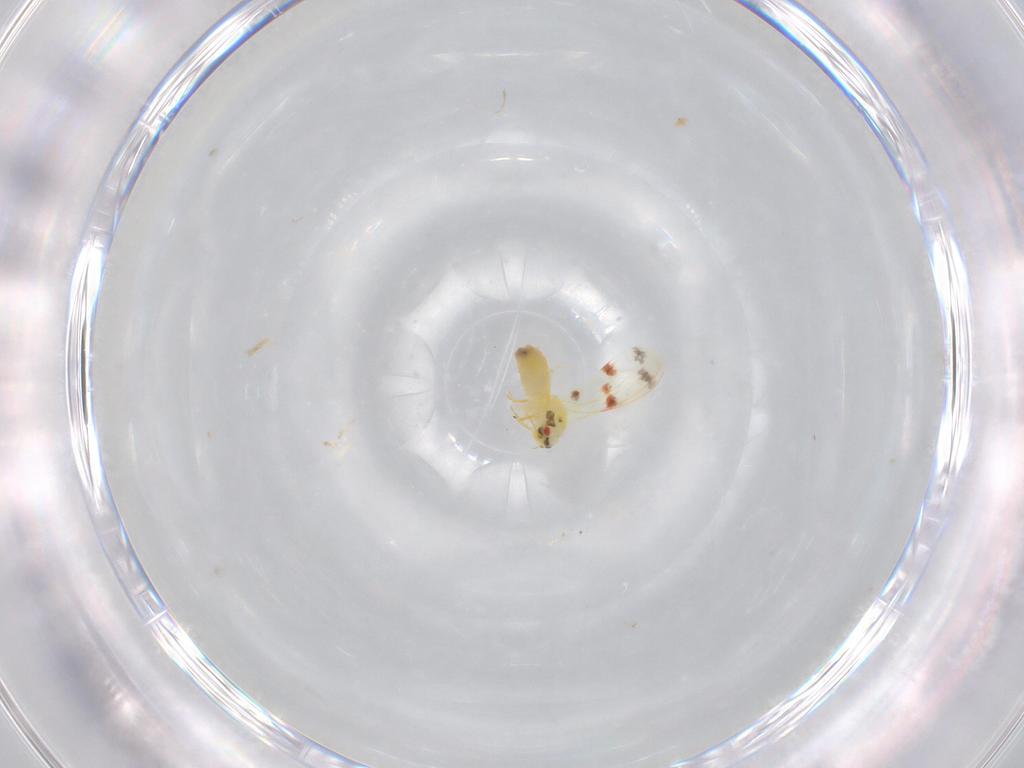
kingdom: Animalia
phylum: Arthropoda
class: Insecta
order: Hemiptera
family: Aleyrodidae
